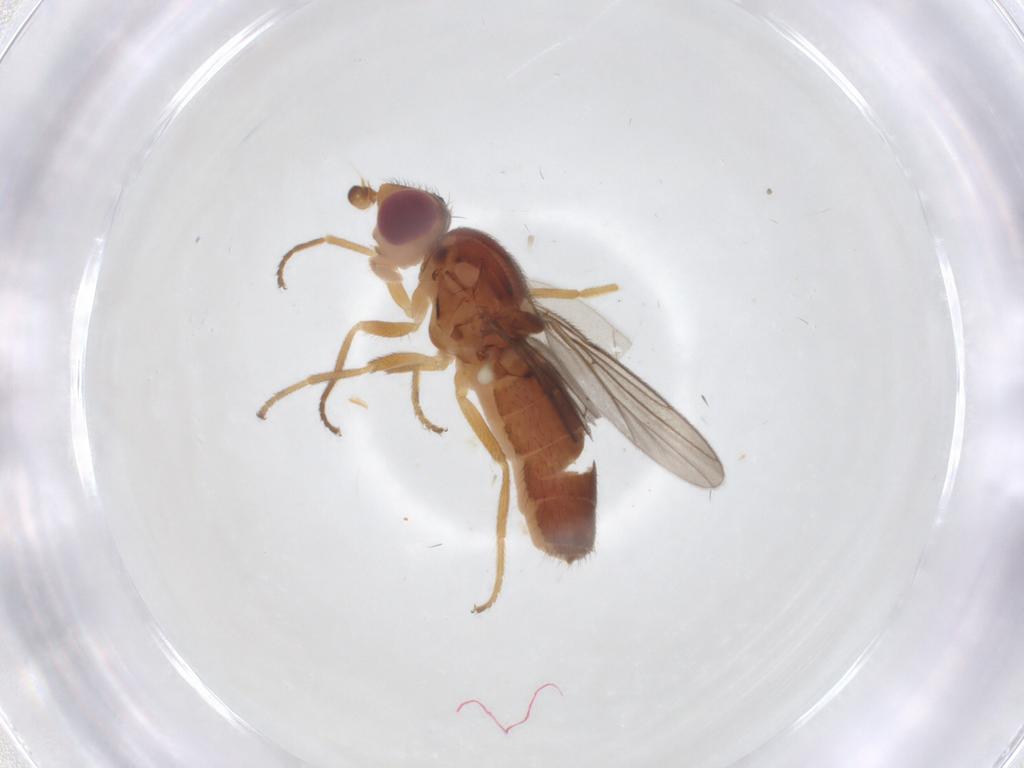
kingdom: Animalia
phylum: Arthropoda
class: Insecta
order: Diptera
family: Chloropidae
